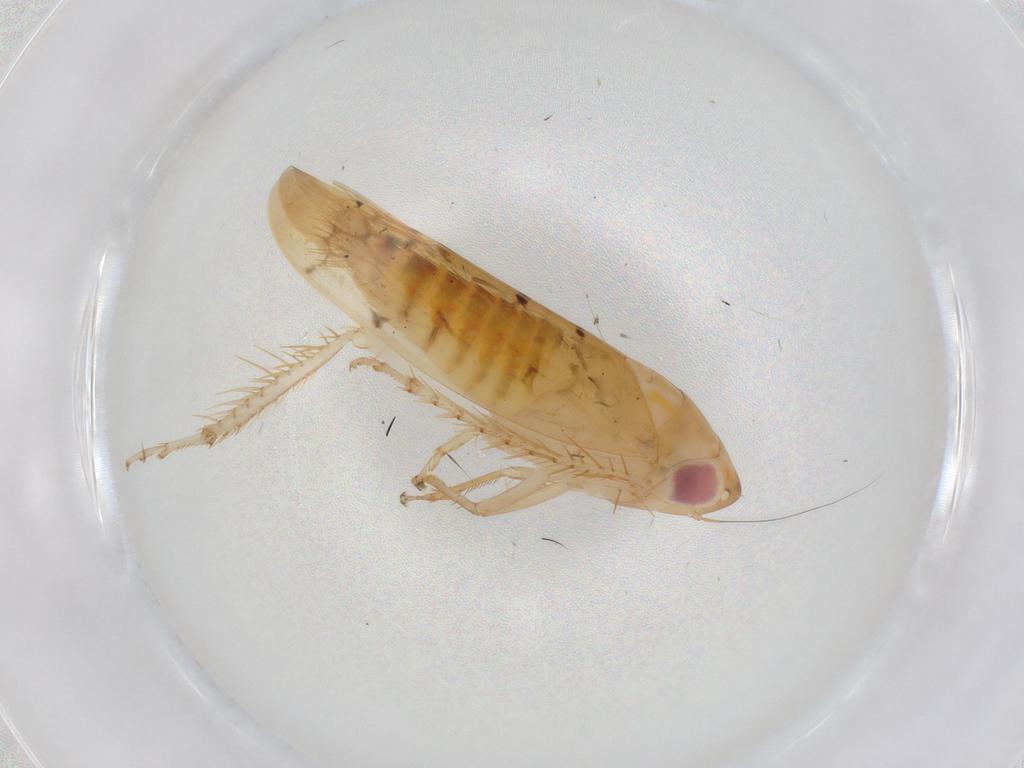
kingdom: Animalia
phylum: Arthropoda
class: Insecta
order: Hemiptera
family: Cicadellidae
